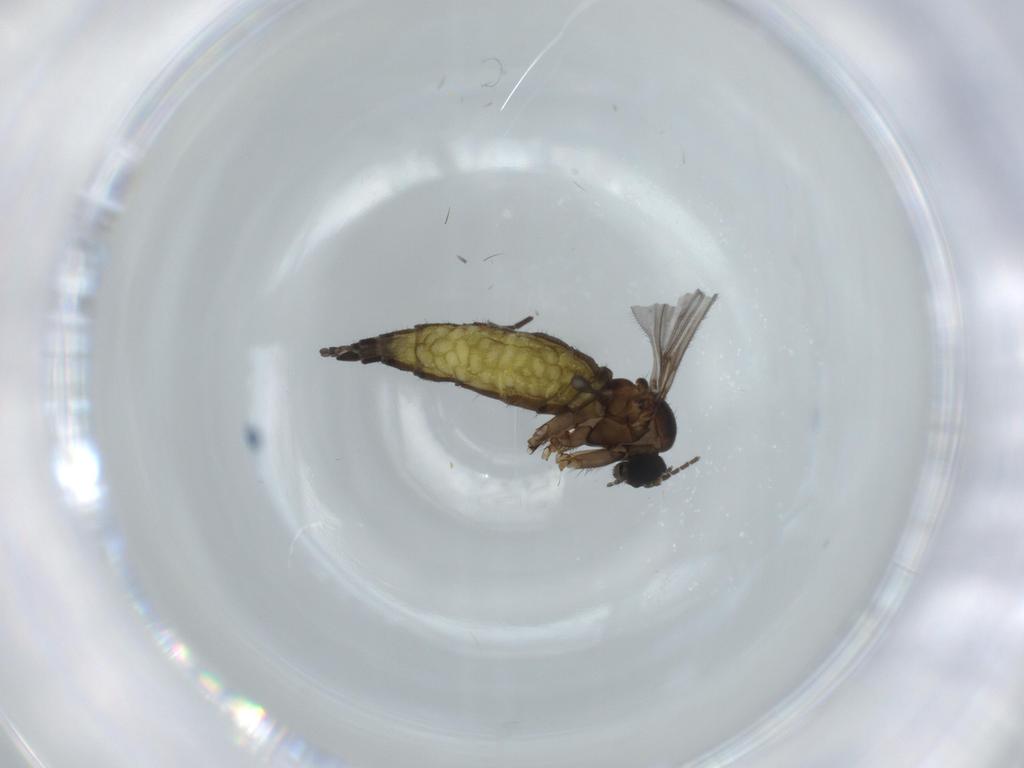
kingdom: Animalia
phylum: Arthropoda
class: Insecta
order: Diptera
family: Sciaridae
